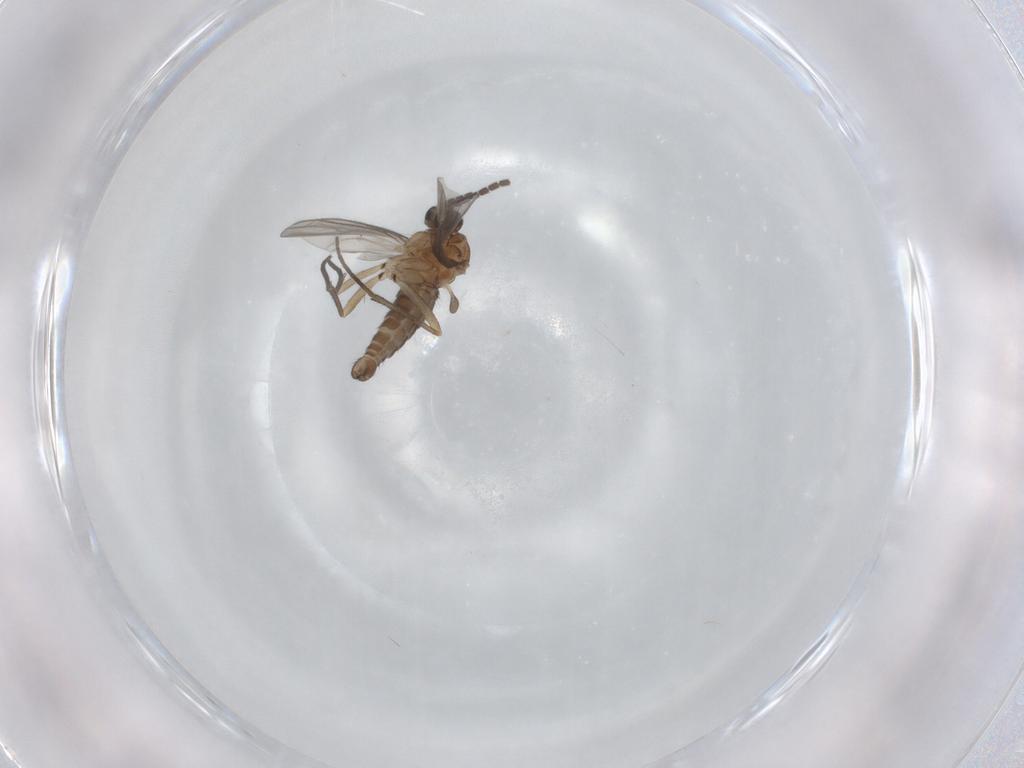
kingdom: Animalia
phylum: Arthropoda
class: Insecta
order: Diptera
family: Sciaridae
